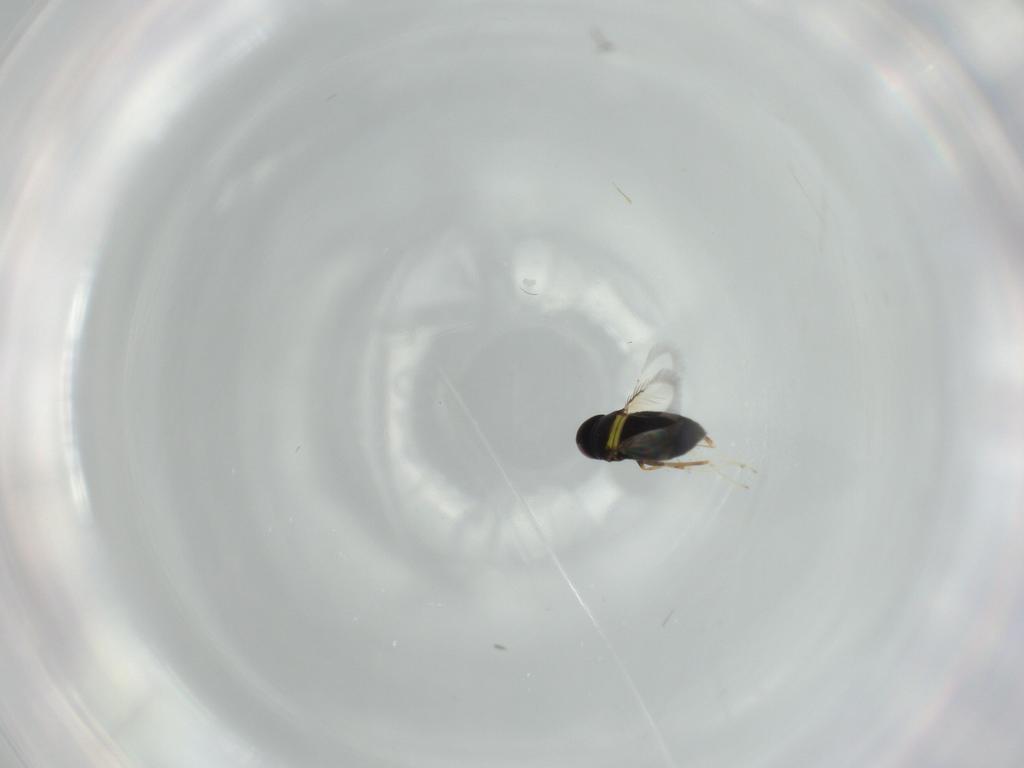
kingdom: Animalia
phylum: Arthropoda
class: Insecta
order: Hymenoptera
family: Signiphoridae
